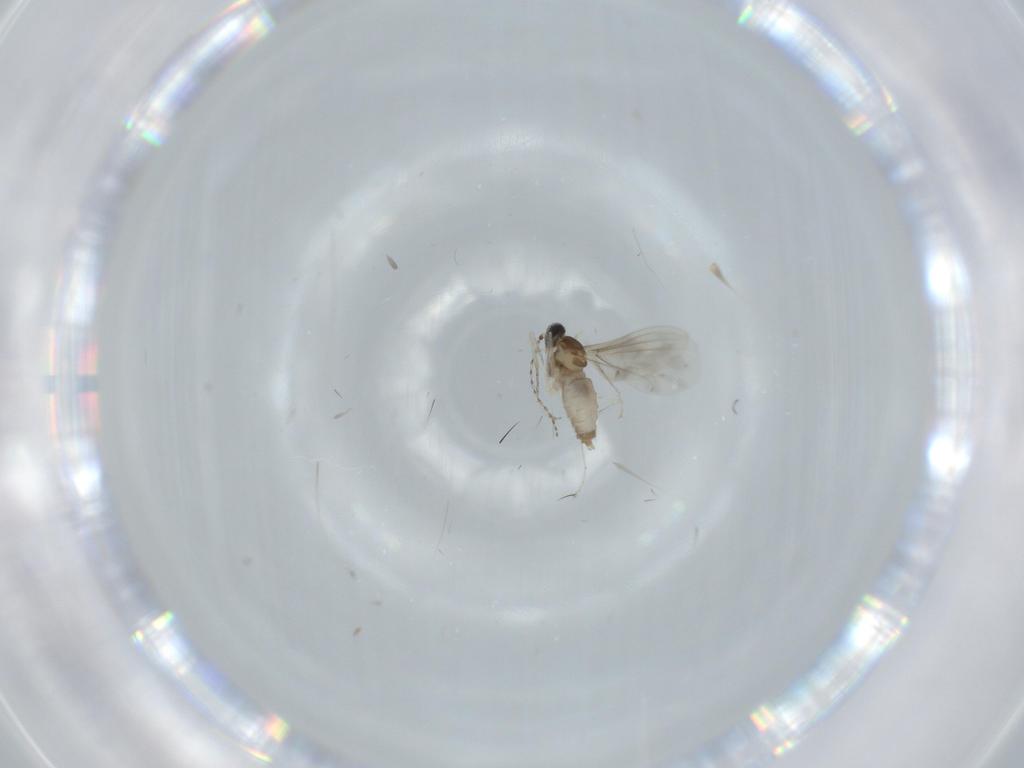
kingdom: Animalia
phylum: Arthropoda
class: Insecta
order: Diptera
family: Cecidomyiidae
